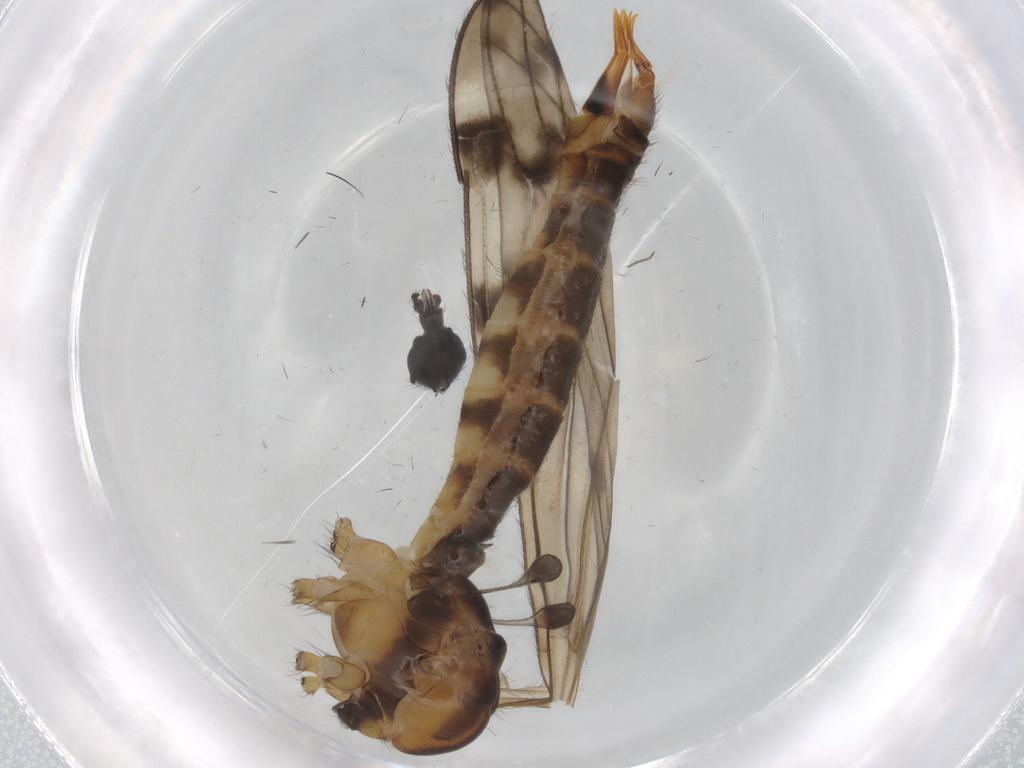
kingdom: Animalia
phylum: Arthropoda
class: Insecta
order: Diptera
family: Limoniidae
